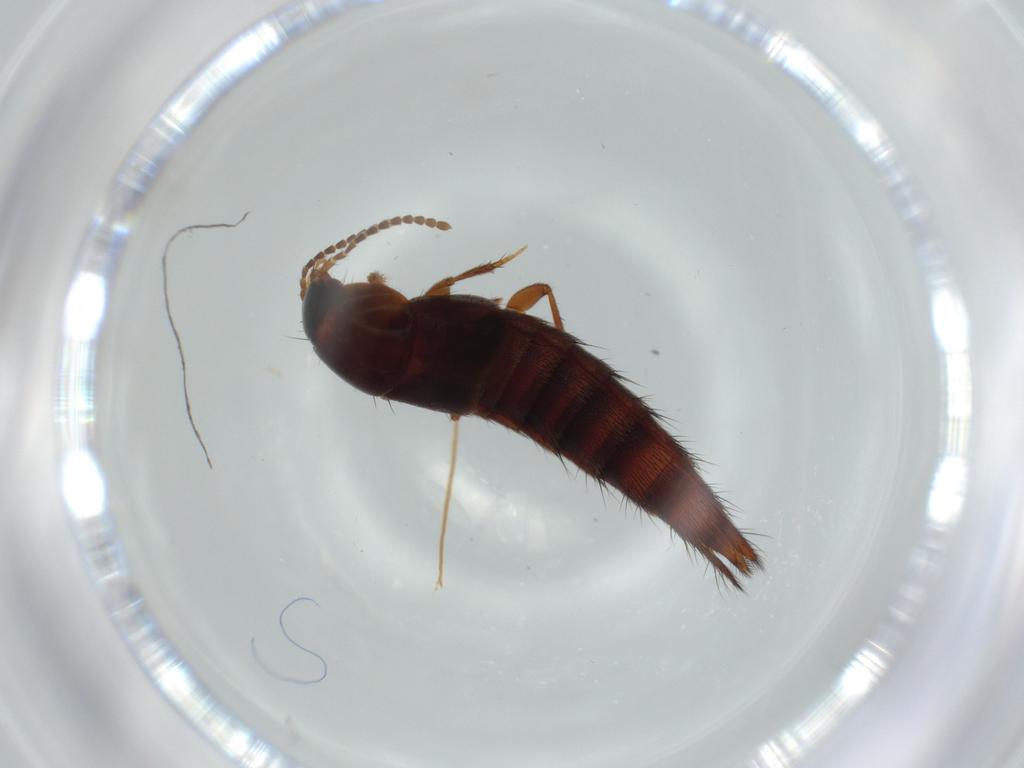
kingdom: Animalia
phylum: Arthropoda
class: Insecta
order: Coleoptera
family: Staphylinidae
